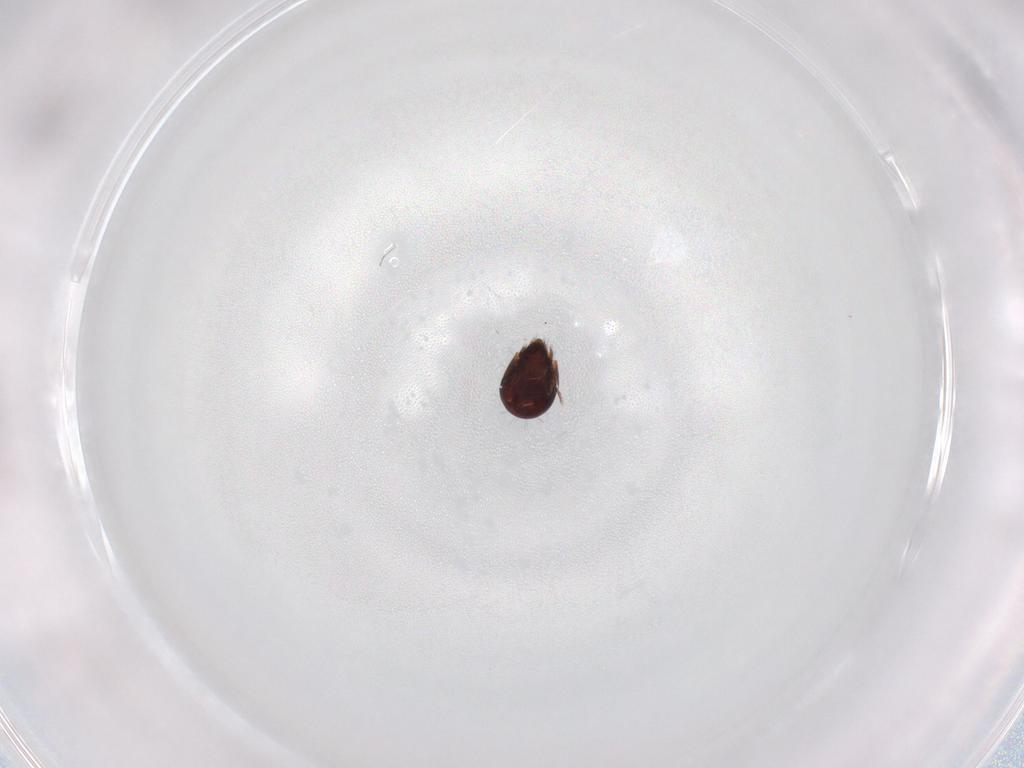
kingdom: Animalia
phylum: Arthropoda
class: Arachnida
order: Sarcoptiformes
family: Humerobatidae
